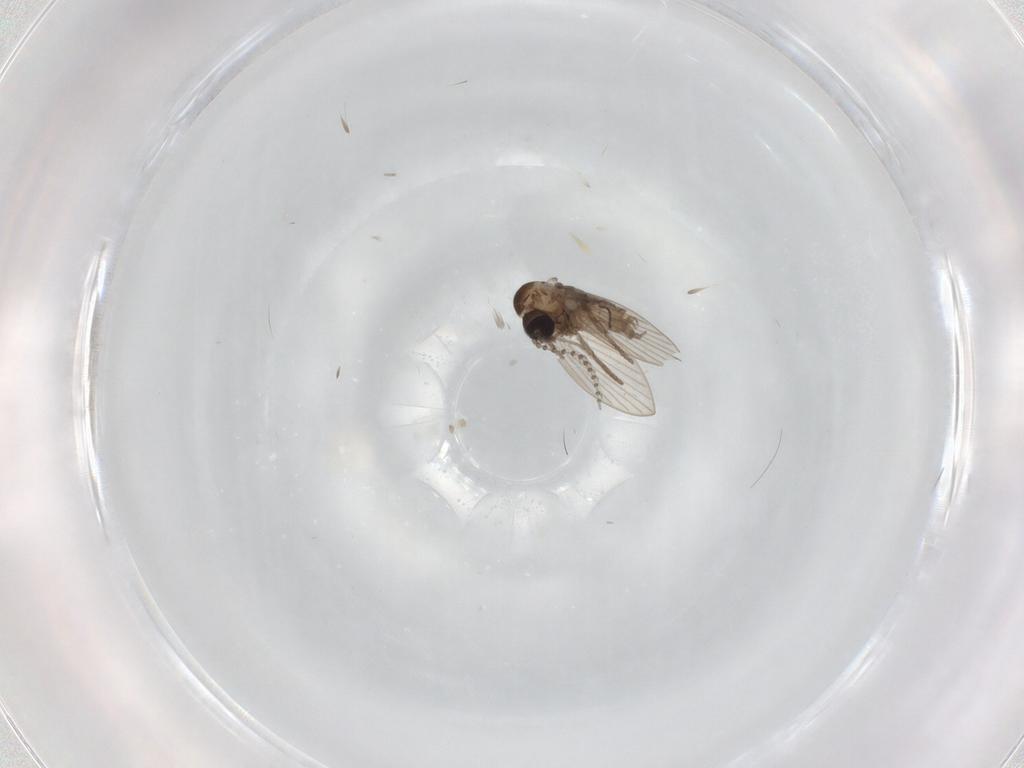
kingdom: Animalia
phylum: Arthropoda
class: Insecta
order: Diptera
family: Psychodidae
